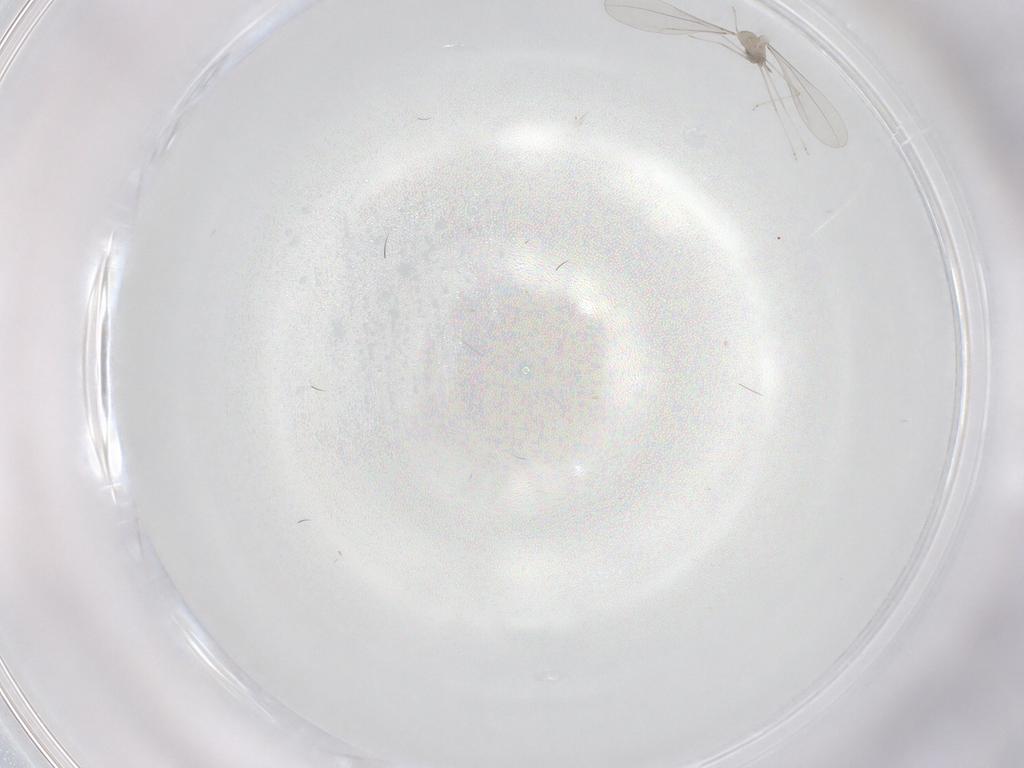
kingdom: Animalia
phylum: Arthropoda
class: Insecta
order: Diptera
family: Cecidomyiidae
